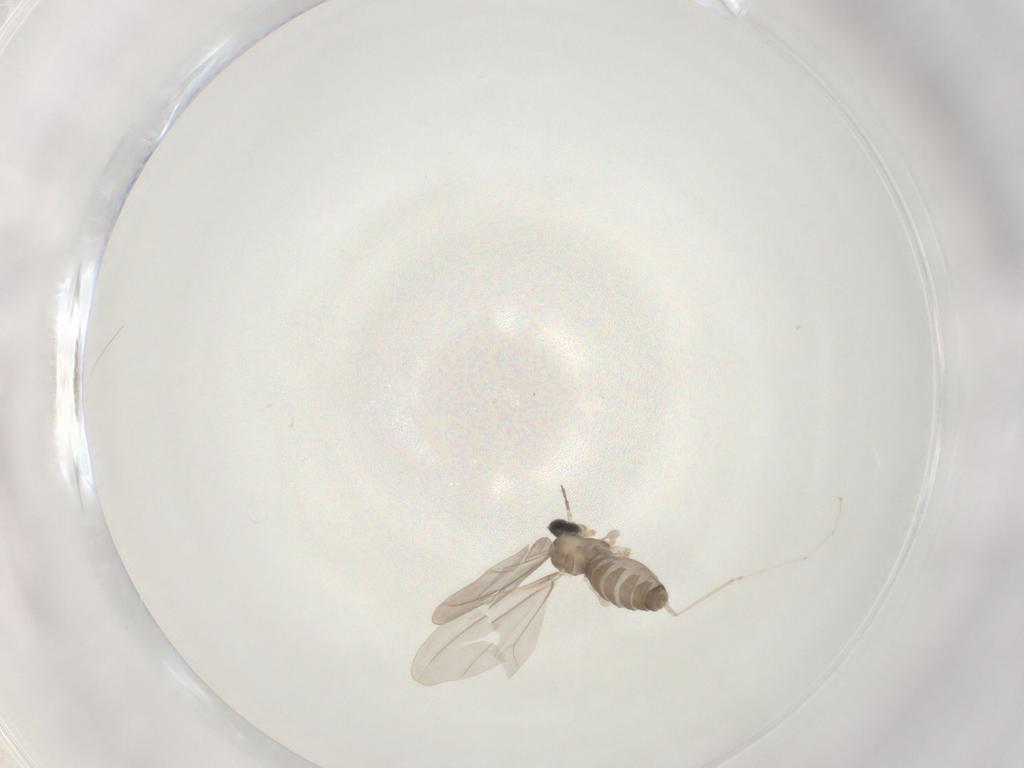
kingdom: Animalia
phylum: Arthropoda
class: Insecta
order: Diptera
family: Cecidomyiidae
